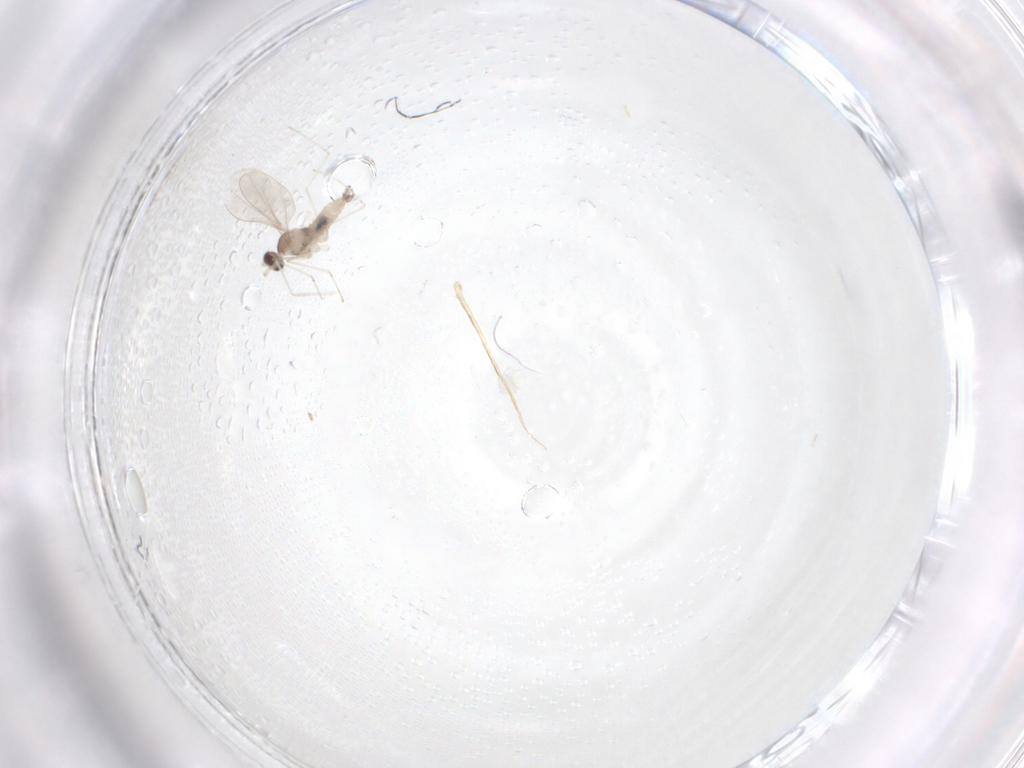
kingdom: Animalia
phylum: Arthropoda
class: Insecta
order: Diptera
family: Cecidomyiidae
